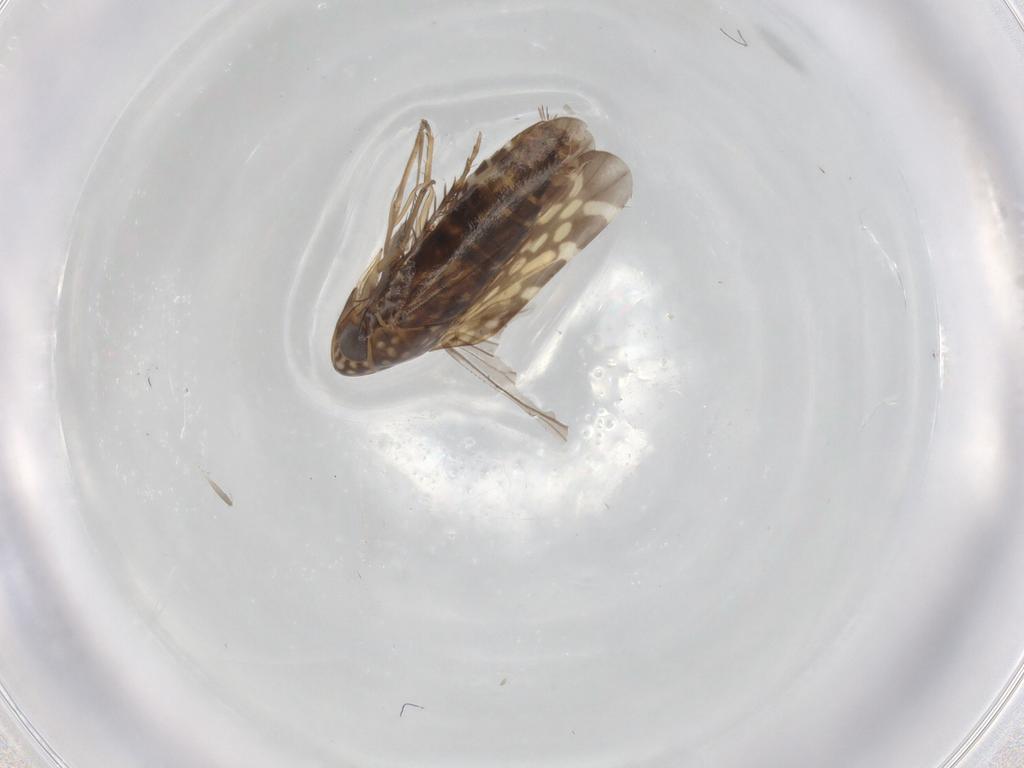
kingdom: Animalia
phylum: Arthropoda
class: Insecta
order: Hemiptera
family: Cicadellidae
